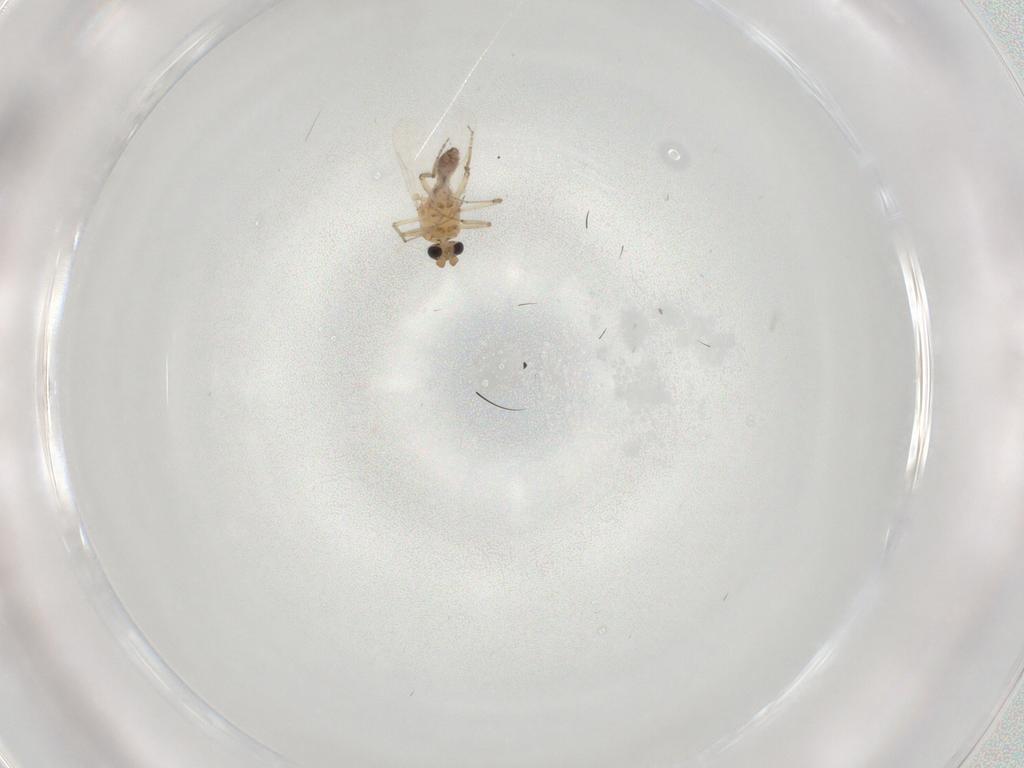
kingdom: Animalia
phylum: Arthropoda
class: Insecta
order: Diptera
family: Ceratopogonidae
